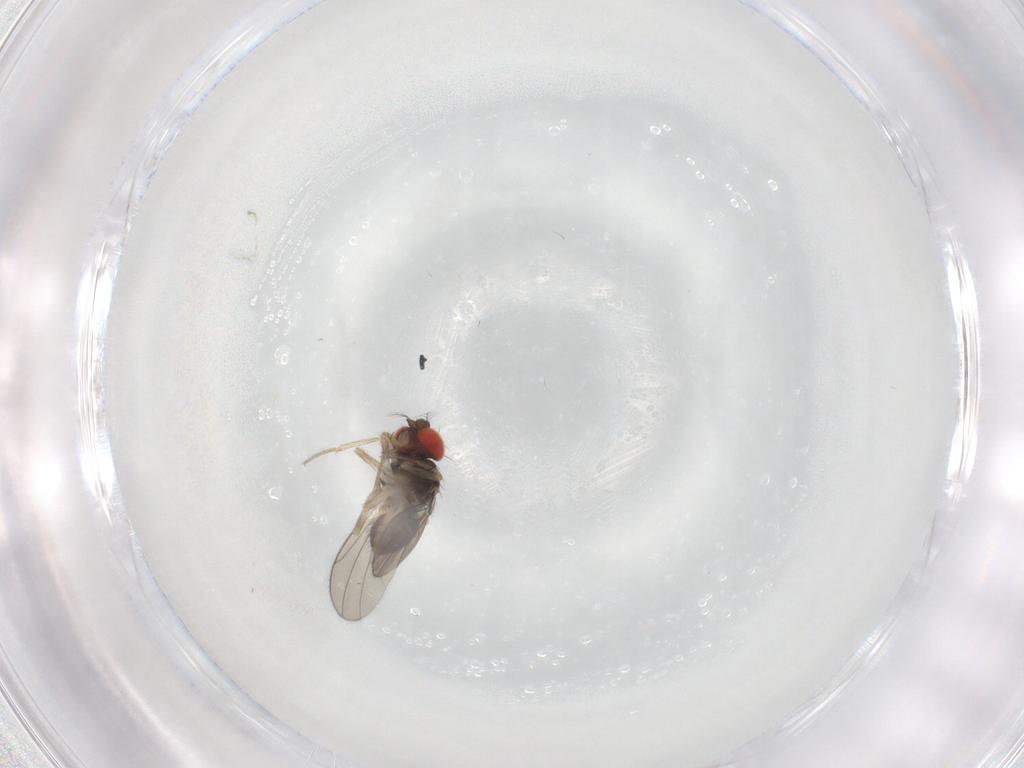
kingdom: Animalia
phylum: Arthropoda
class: Insecta
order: Diptera
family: Drosophilidae
